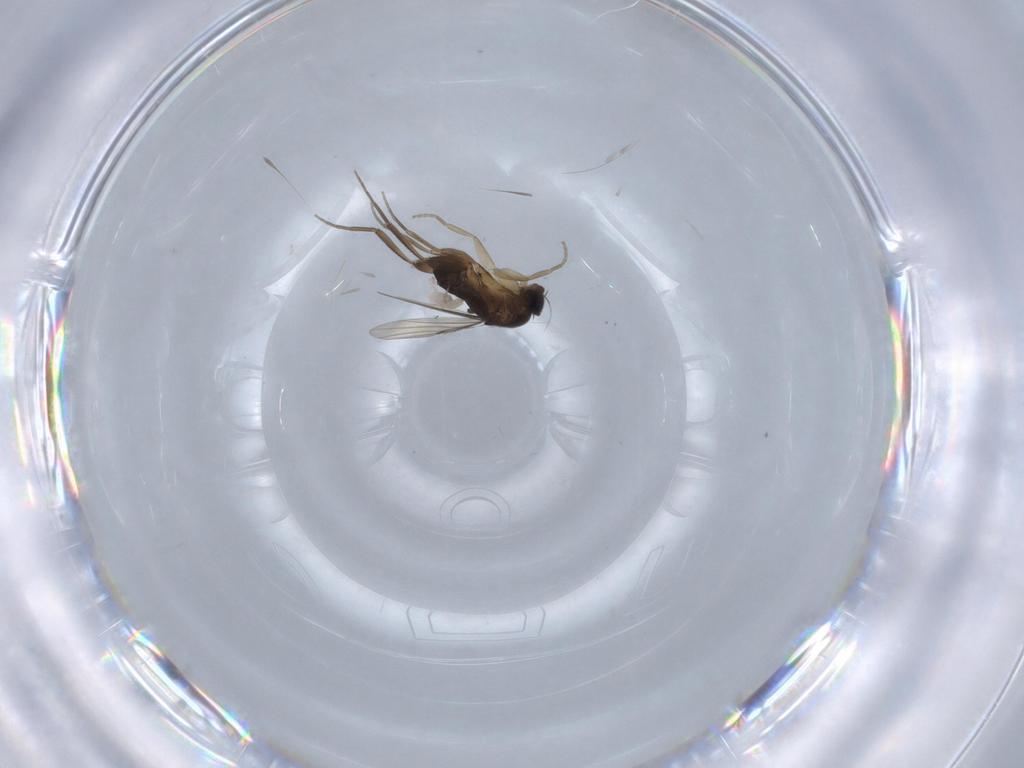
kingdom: Animalia
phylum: Arthropoda
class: Insecta
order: Diptera
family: Phoridae
